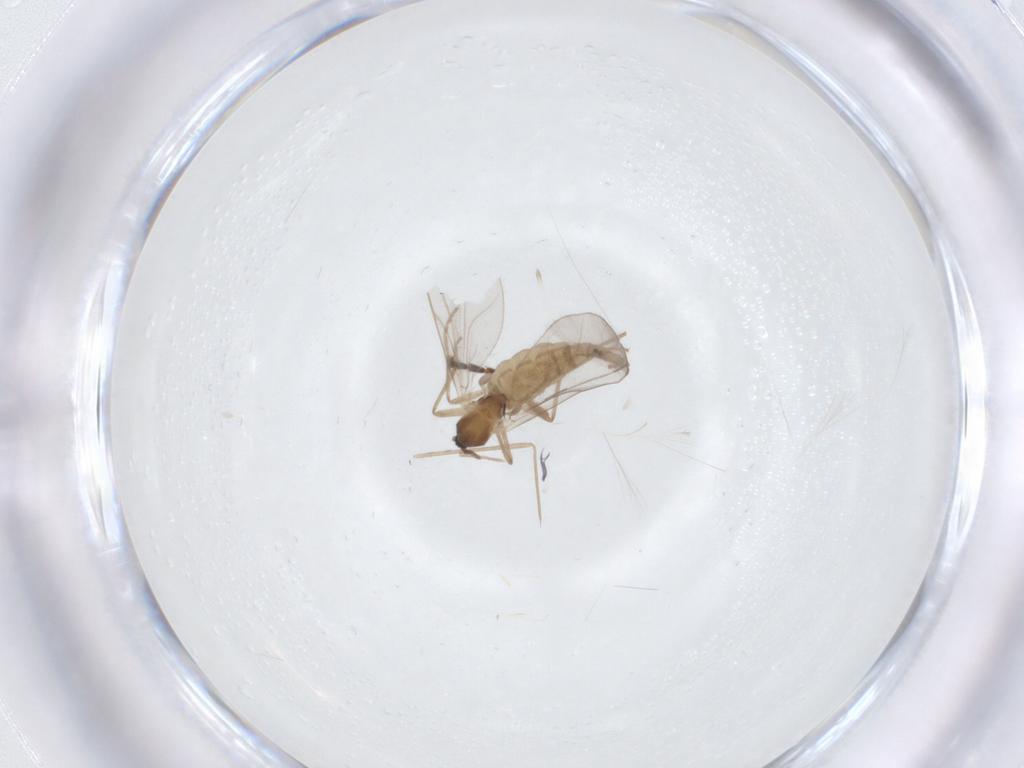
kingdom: Animalia
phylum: Arthropoda
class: Insecta
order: Diptera
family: Cecidomyiidae
